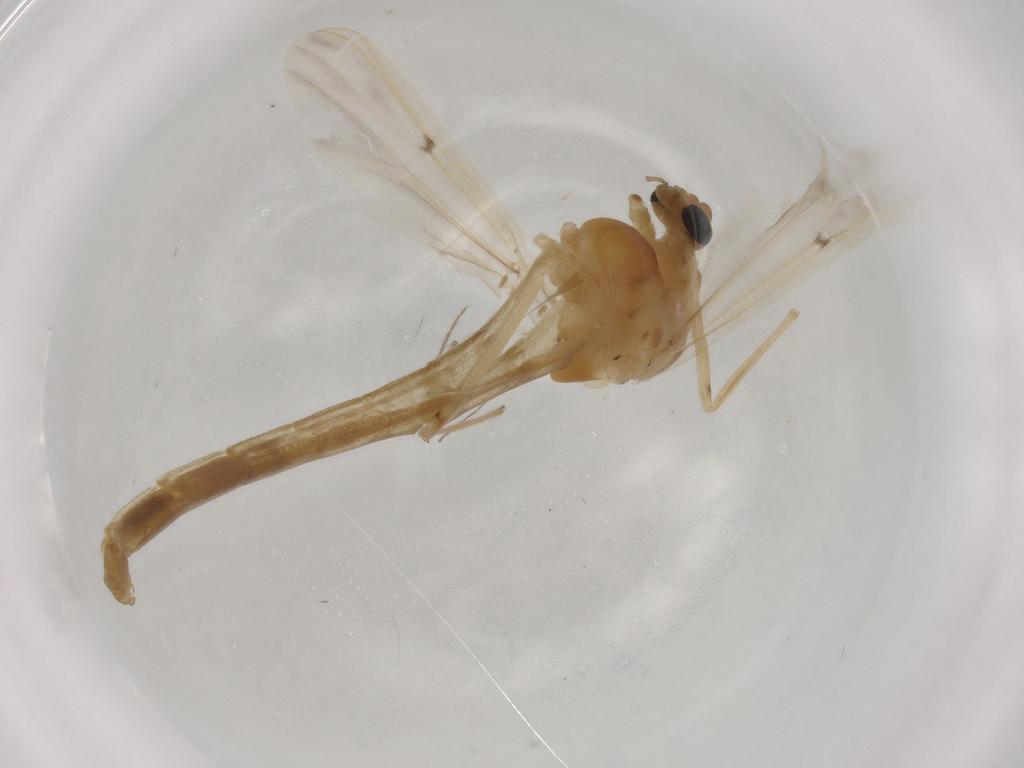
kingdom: Animalia
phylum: Arthropoda
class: Insecta
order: Diptera
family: Chironomidae
